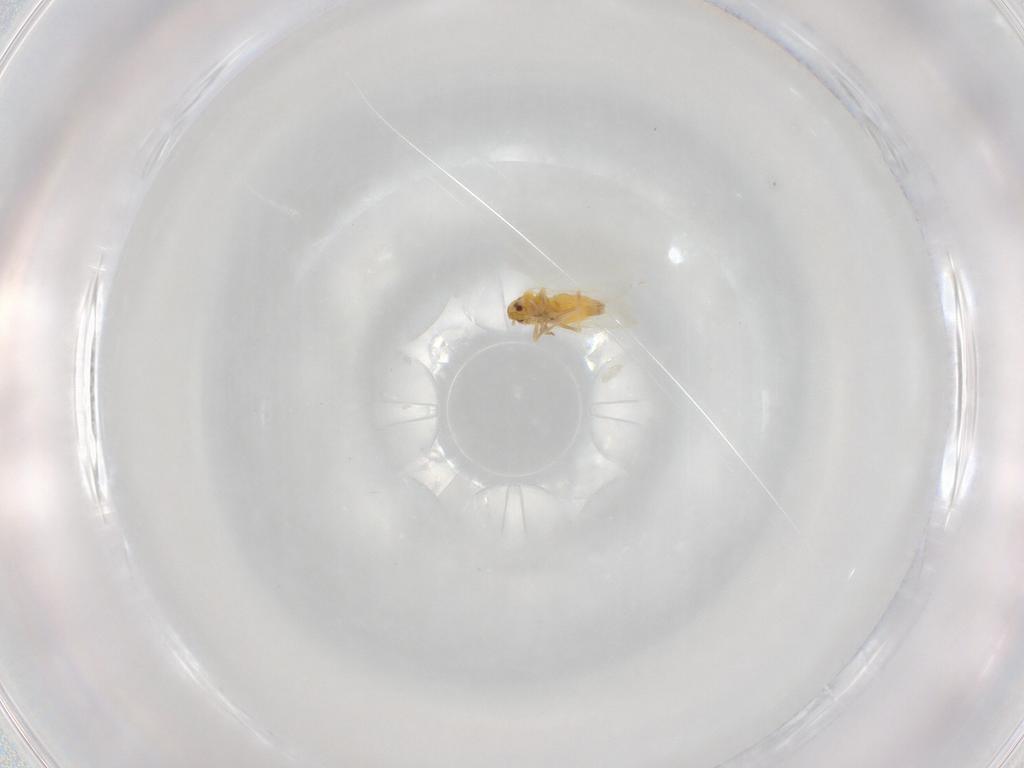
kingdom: Animalia
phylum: Arthropoda
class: Insecta
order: Hemiptera
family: Aleyrodidae
